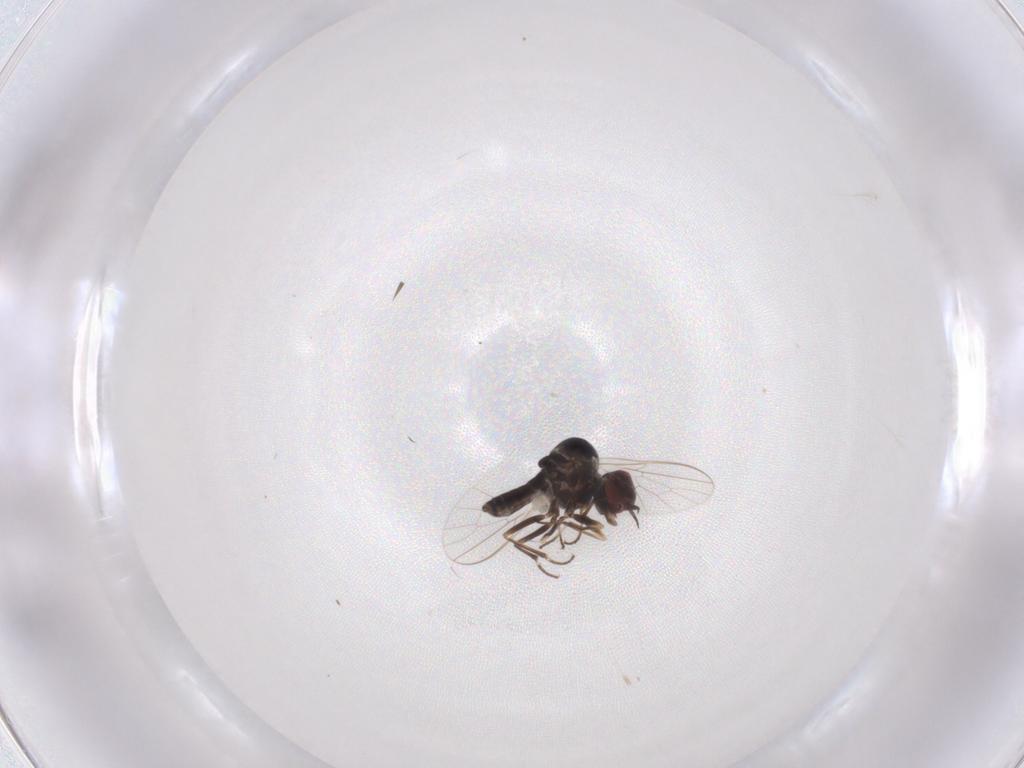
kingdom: Animalia
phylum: Arthropoda
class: Insecta
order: Diptera
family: Bombyliidae
